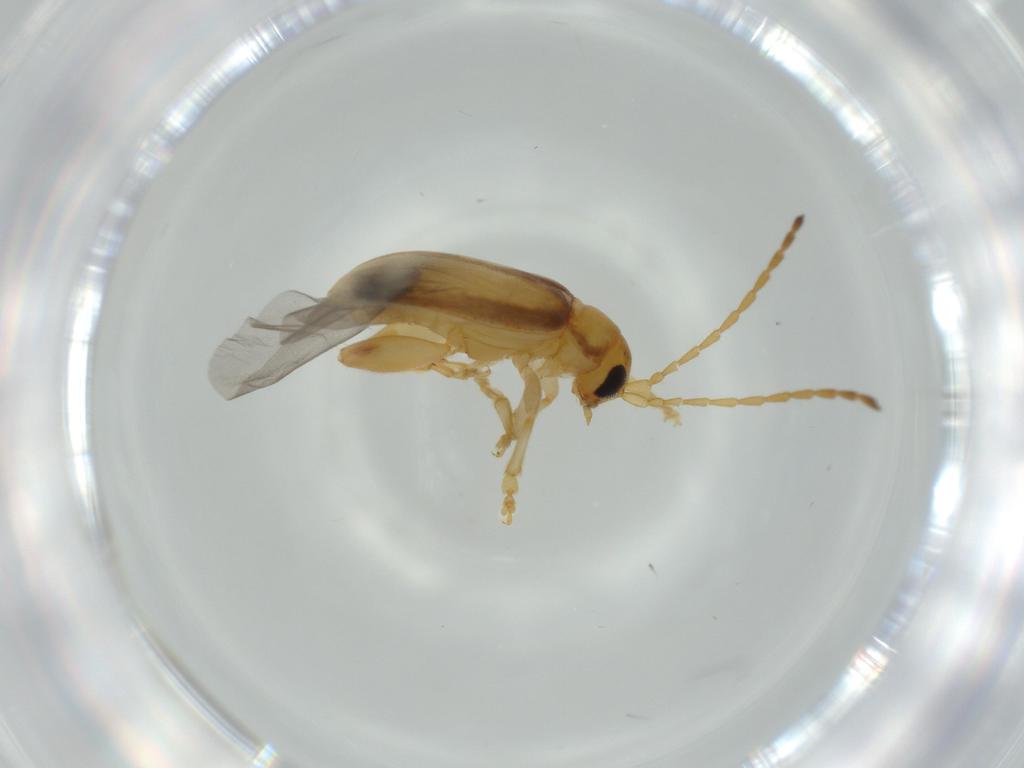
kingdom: Animalia
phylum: Arthropoda
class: Insecta
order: Coleoptera
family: Chrysomelidae
